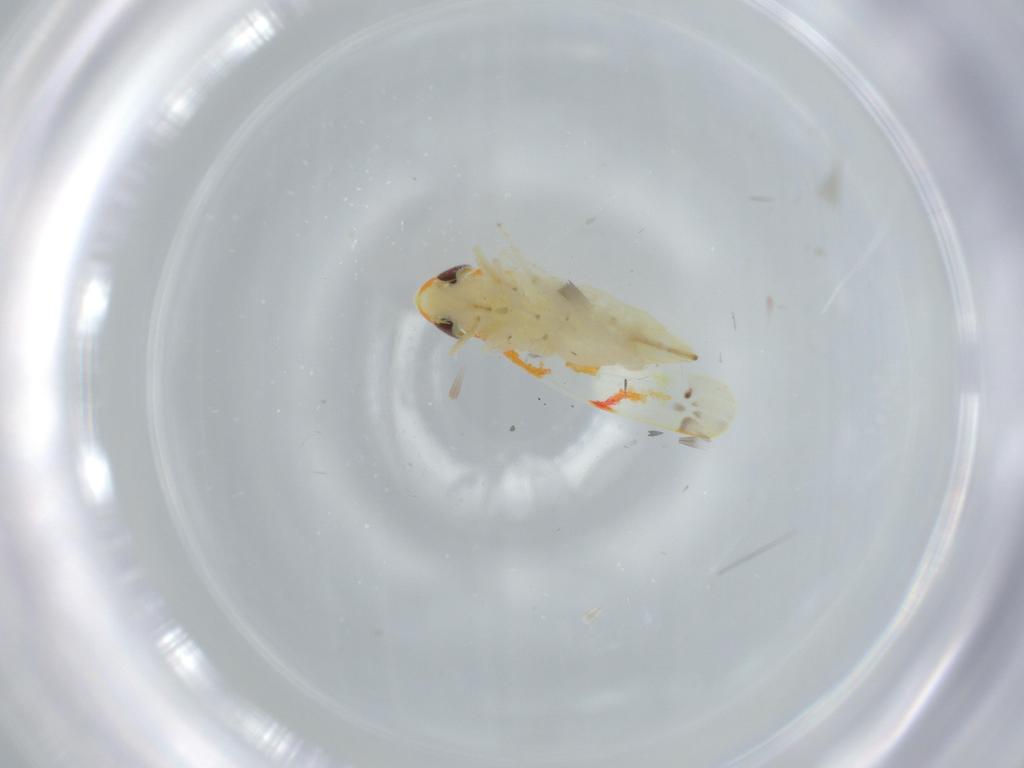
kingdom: Animalia
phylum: Arthropoda
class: Insecta
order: Hemiptera
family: Cicadellidae
